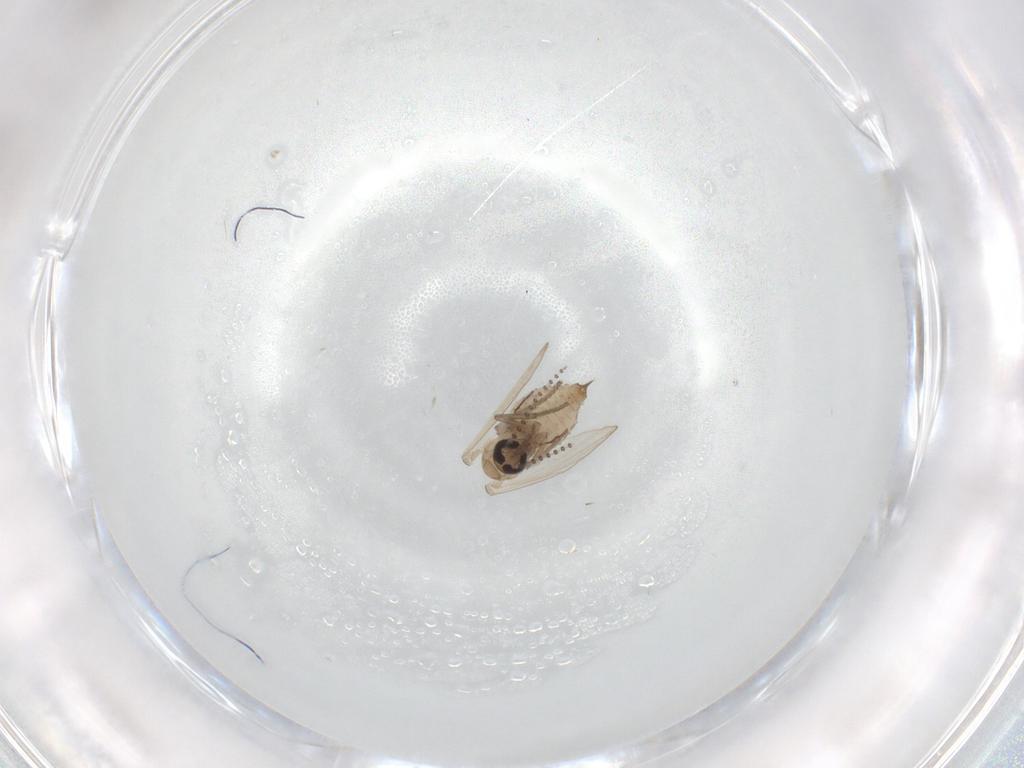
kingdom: Animalia
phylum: Arthropoda
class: Insecta
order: Diptera
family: Psychodidae
